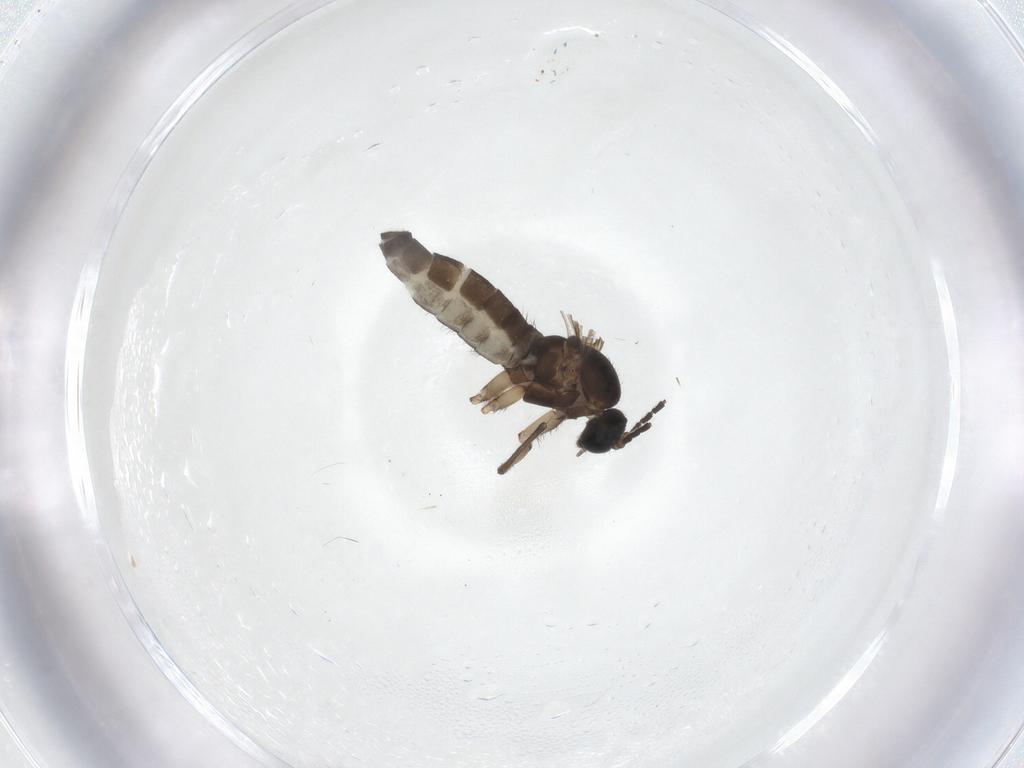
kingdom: Animalia
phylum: Arthropoda
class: Insecta
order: Diptera
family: Sciaridae
